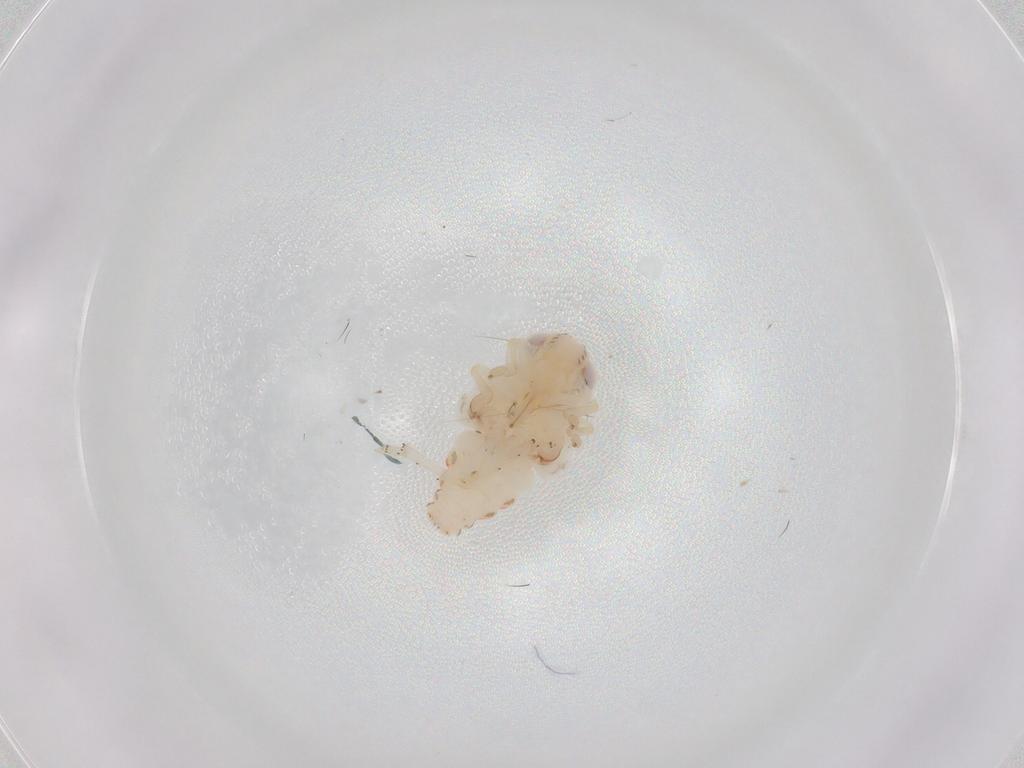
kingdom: Animalia
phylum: Arthropoda
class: Insecta
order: Hemiptera
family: Nogodinidae
